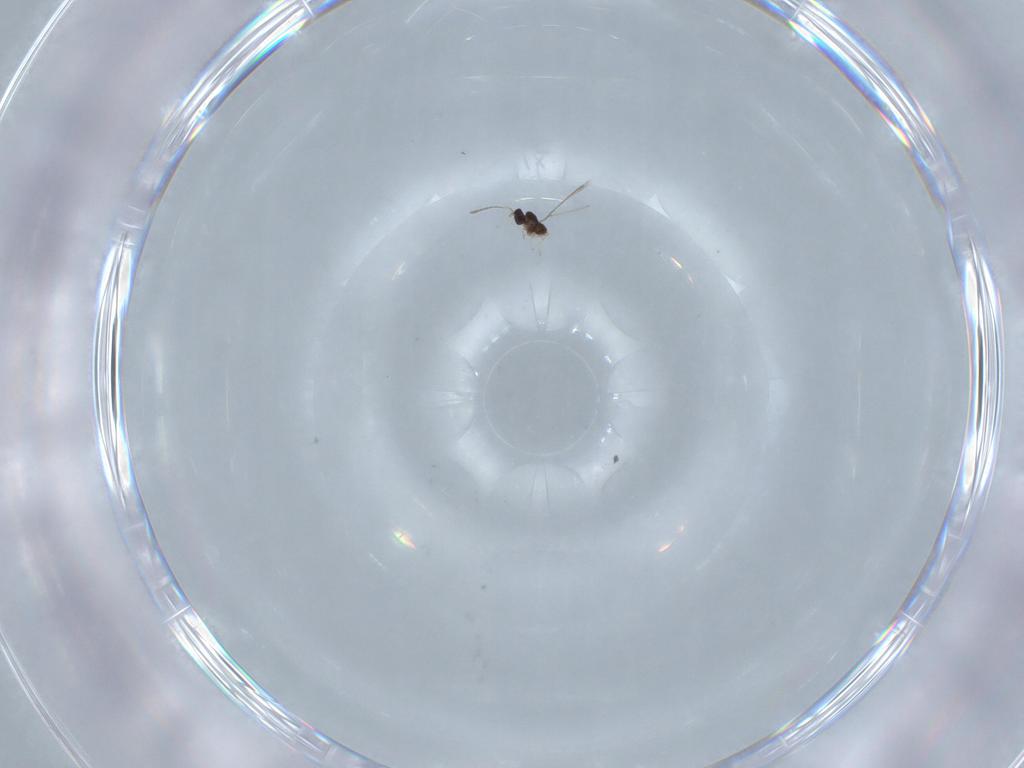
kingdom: Animalia
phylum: Arthropoda
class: Insecta
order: Hymenoptera
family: Mymaridae
